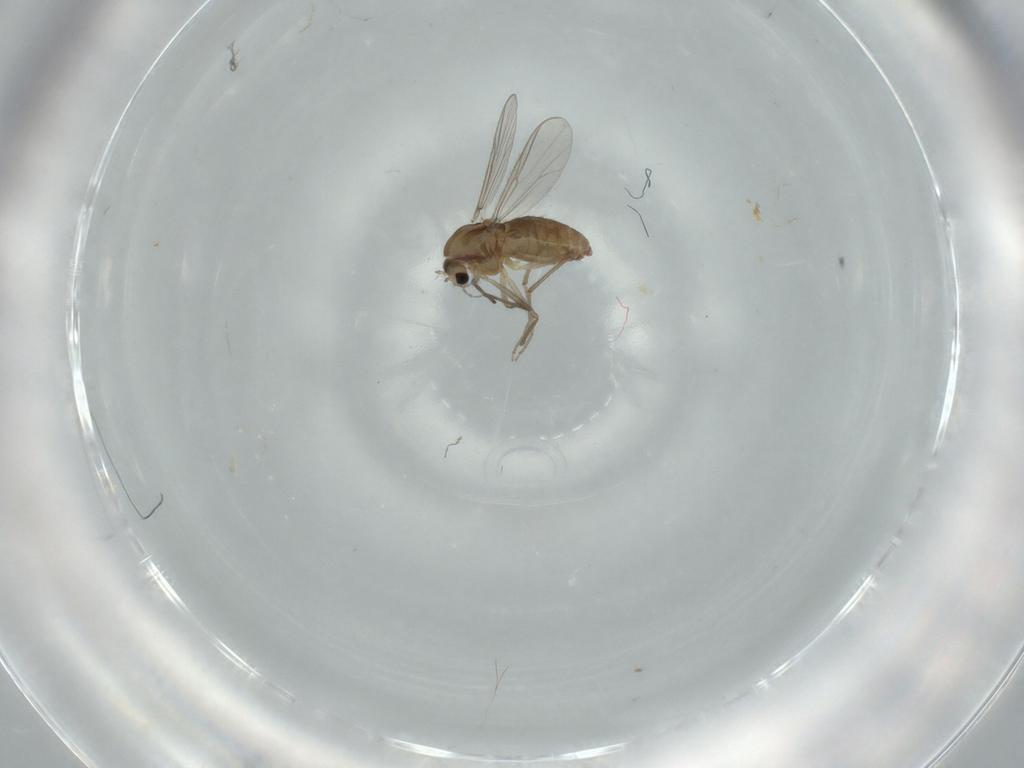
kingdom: Animalia
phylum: Arthropoda
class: Insecta
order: Diptera
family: Chironomidae
